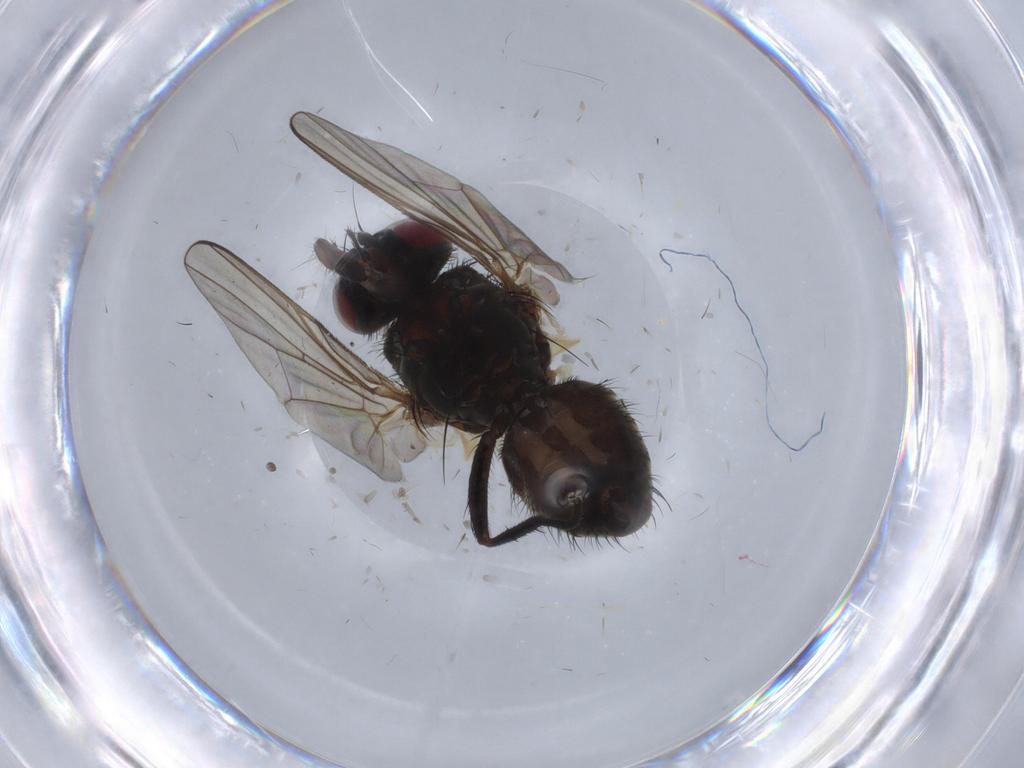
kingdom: Animalia
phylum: Arthropoda
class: Insecta
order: Diptera
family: Muscidae
